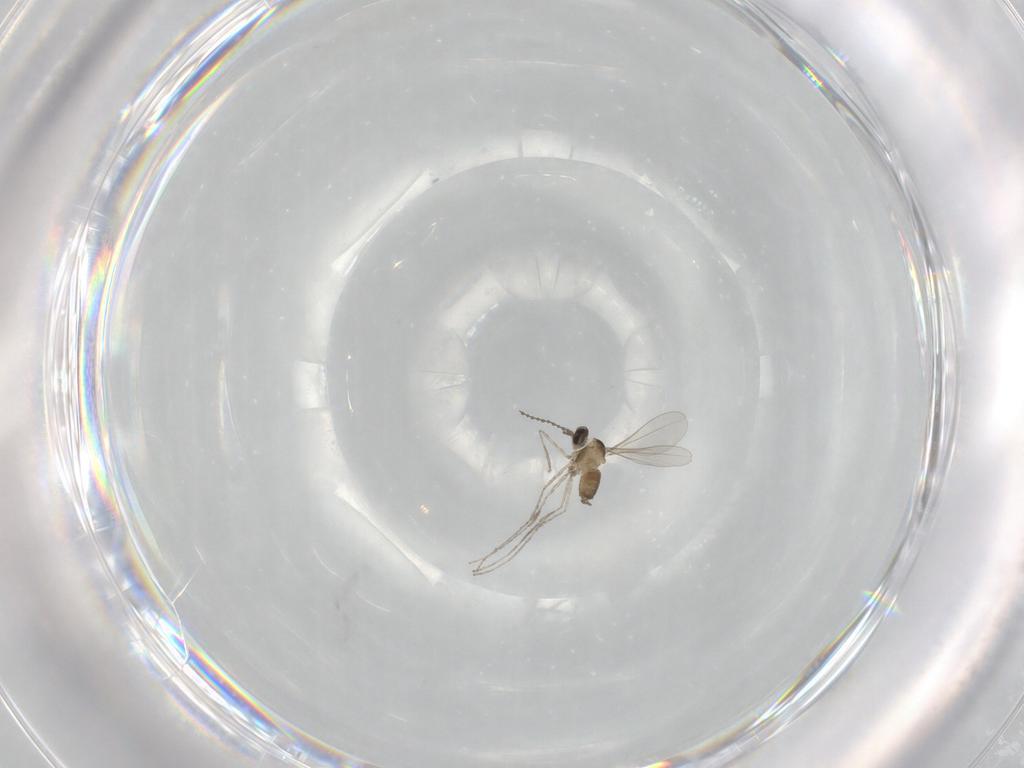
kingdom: Animalia
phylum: Arthropoda
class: Insecta
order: Diptera
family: Cecidomyiidae
